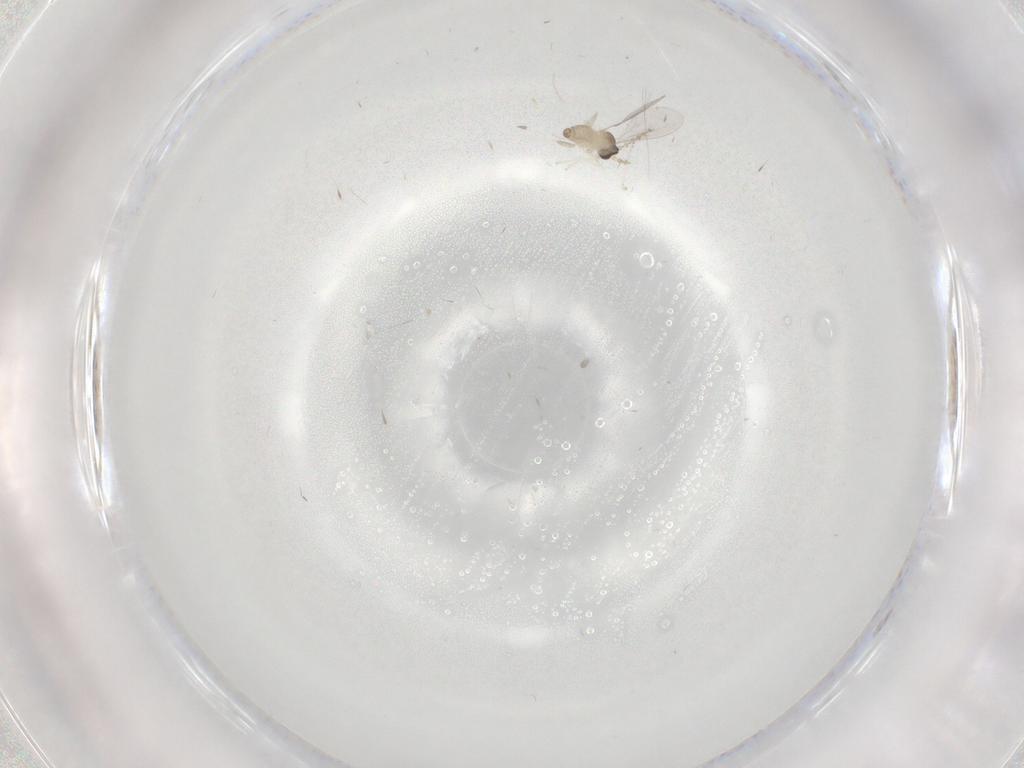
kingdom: Animalia
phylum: Arthropoda
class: Insecta
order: Diptera
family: Cecidomyiidae
